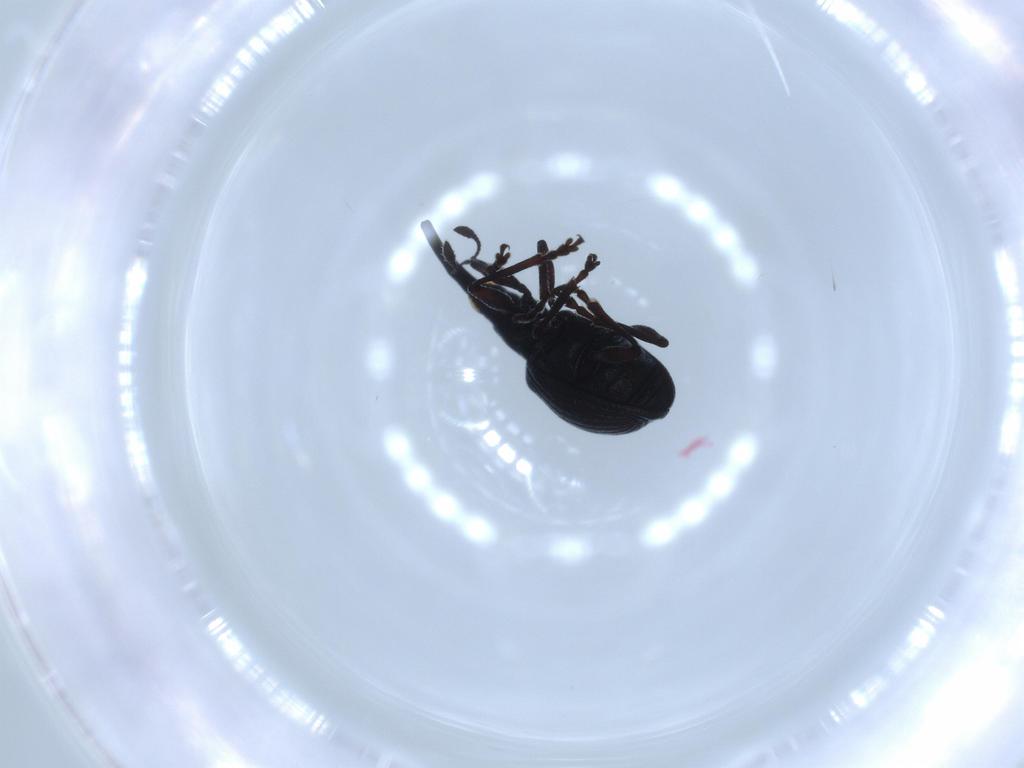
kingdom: Animalia
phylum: Arthropoda
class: Insecta
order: Coleoptera
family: Brentidae
